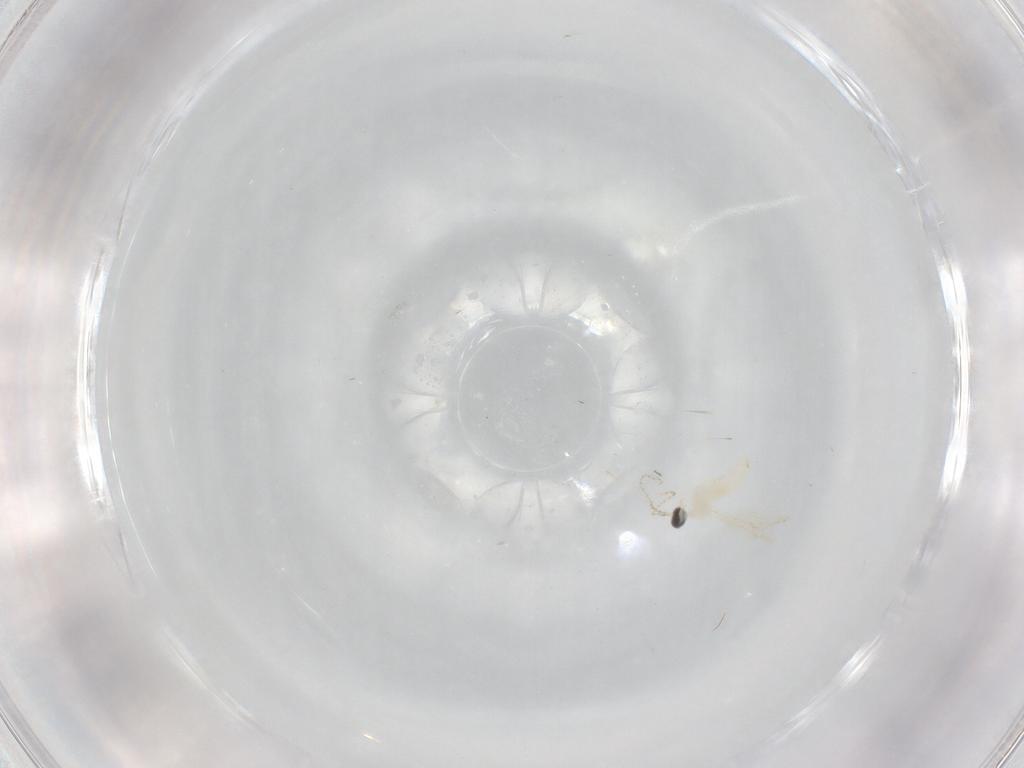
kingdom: Animalia
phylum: Arthropoda
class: Insecta
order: Diptera
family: Cecidomyiidae
